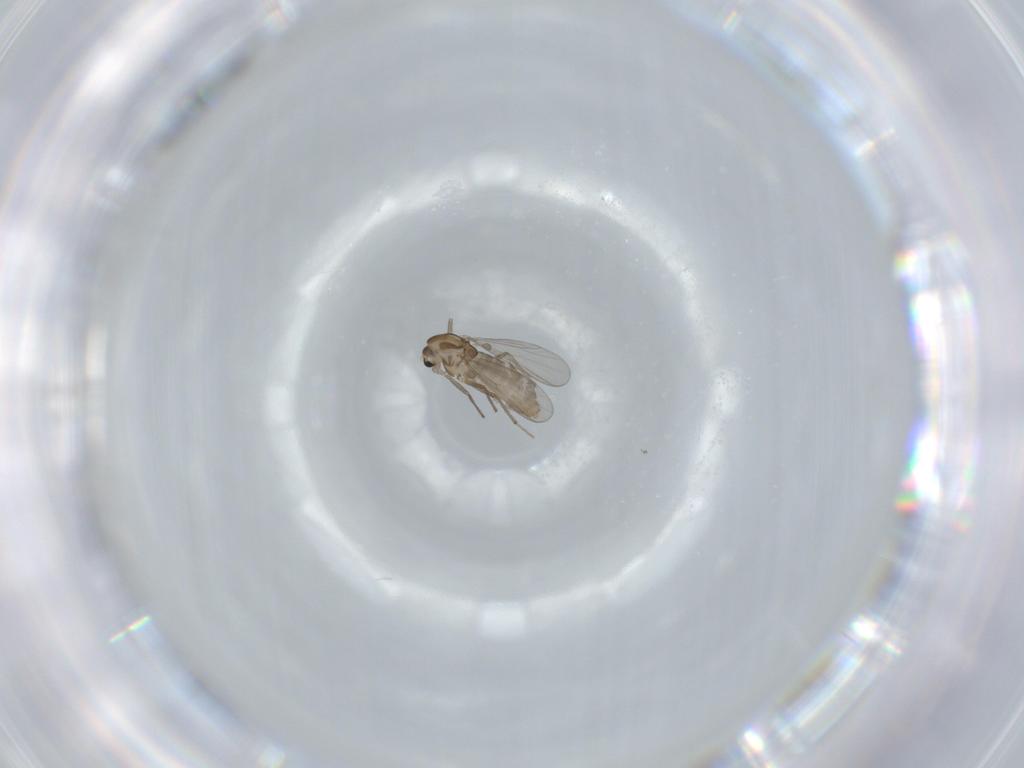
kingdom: Animalia
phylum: Arthropoda
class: Insecta
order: Diptera
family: Chironomidae
